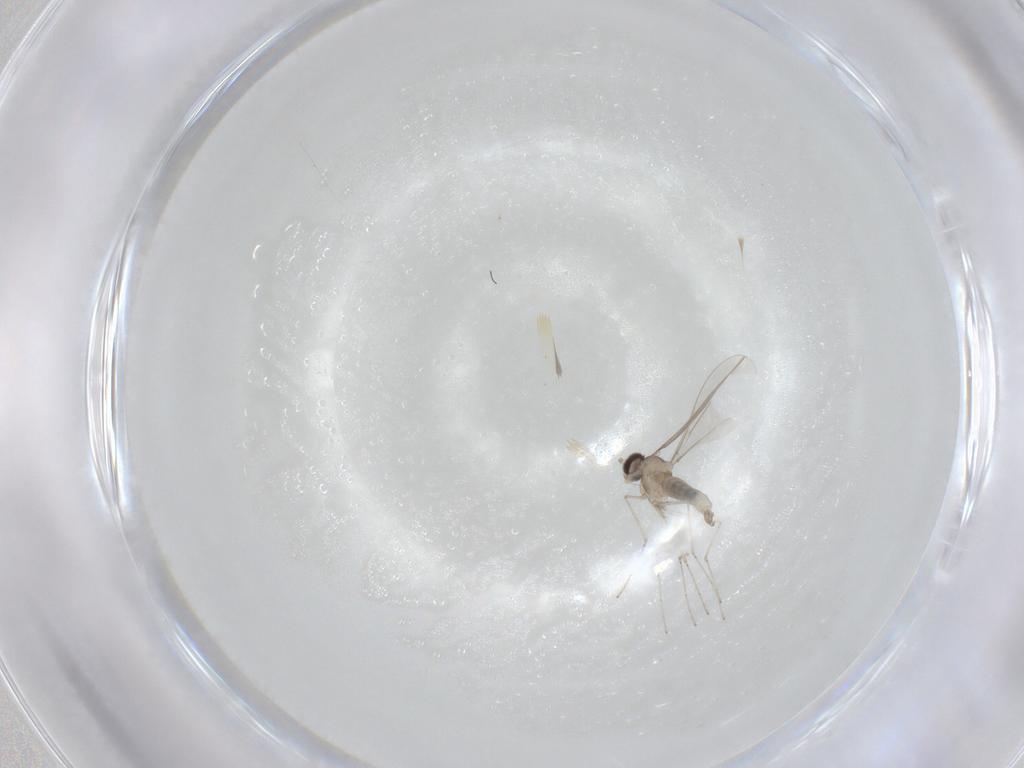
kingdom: Animalia
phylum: Arthropoda
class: Insecta
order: Diptera
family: Cecidomyiidae
